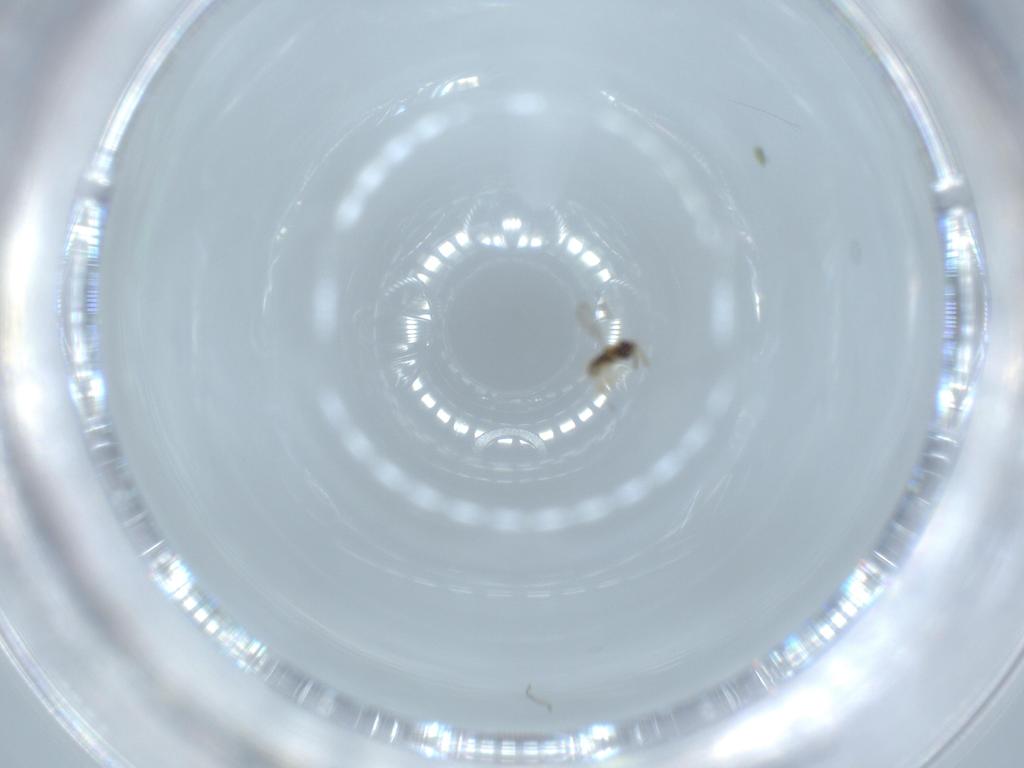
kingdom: Animalia
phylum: Arthropoda
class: Insecta
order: Hymenoptera
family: Aphelinidae
